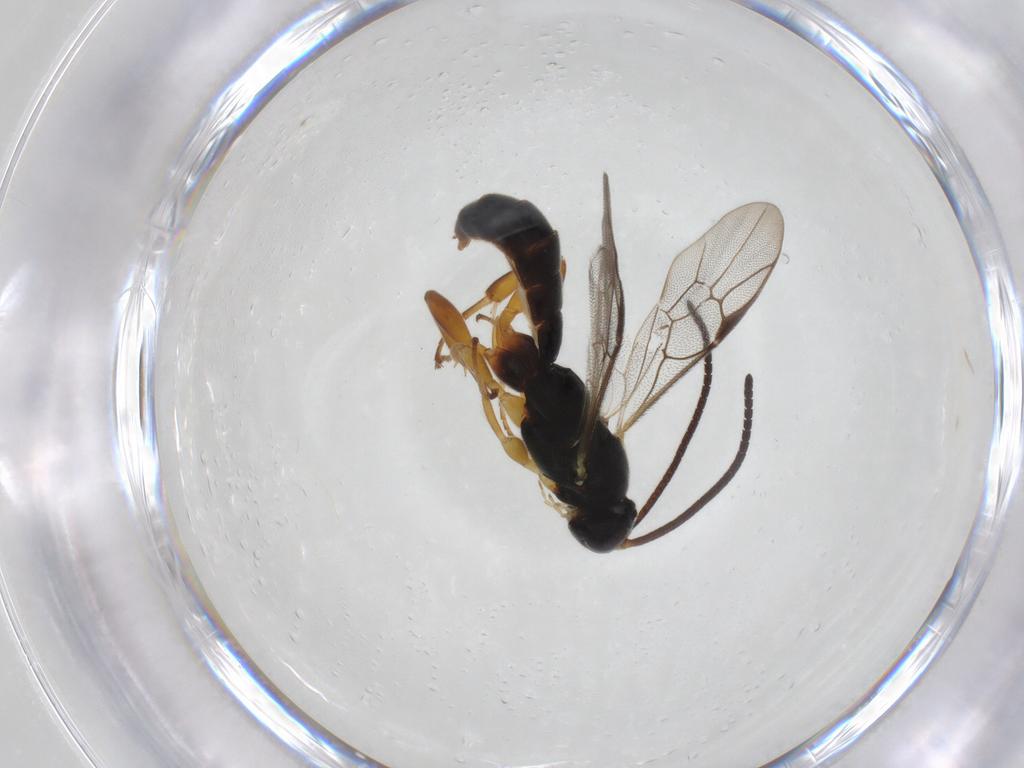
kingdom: Animalia
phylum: Arthropoda
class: Insecta
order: Hymenoptera
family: Ichneumonidae
